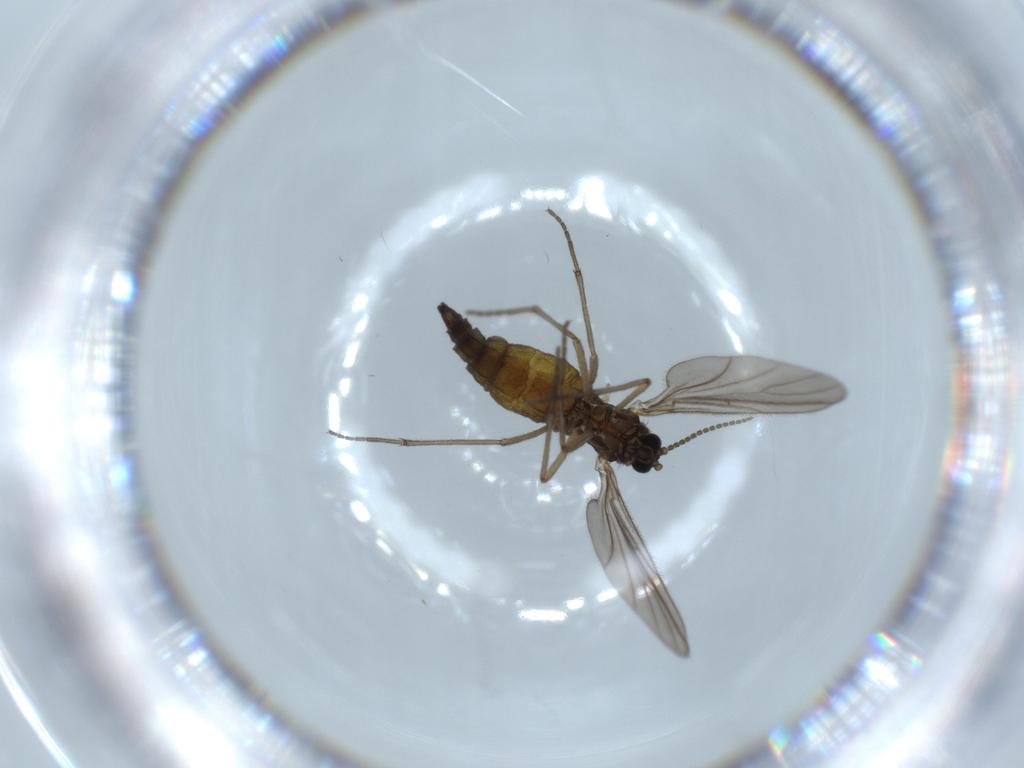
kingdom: Animalia
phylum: Arthropoda
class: Insecta
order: Diptera
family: Sciaridae
